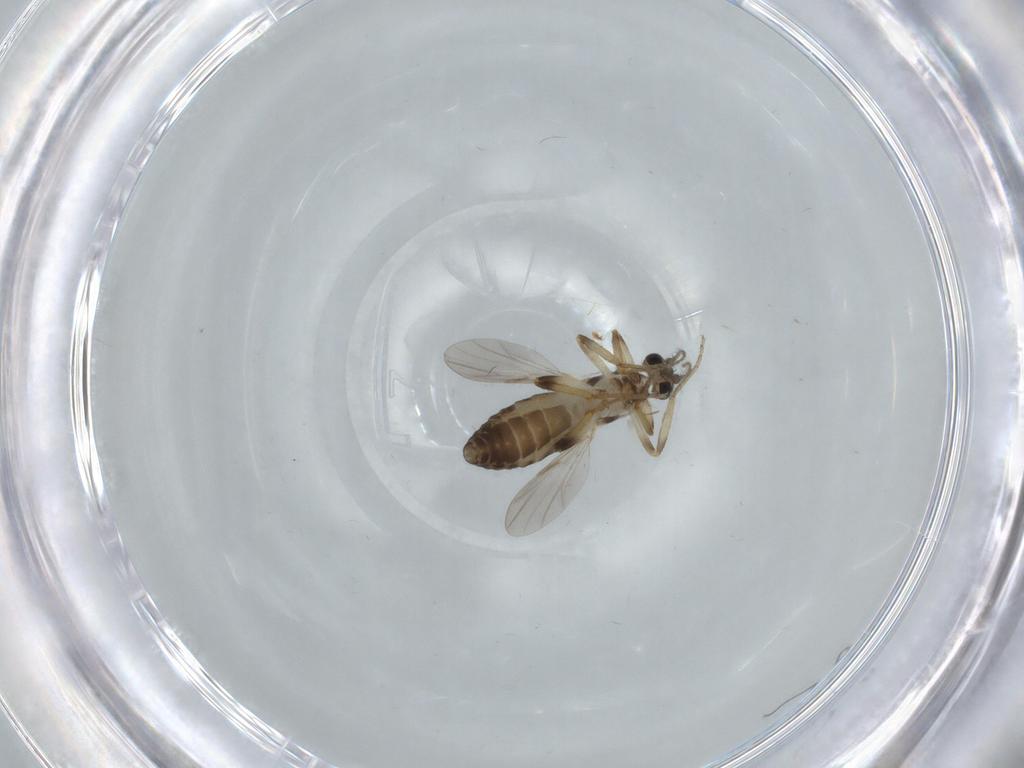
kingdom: Animalia
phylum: Arthropoda
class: Insecta
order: Diptera
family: Ceratopogonidae
